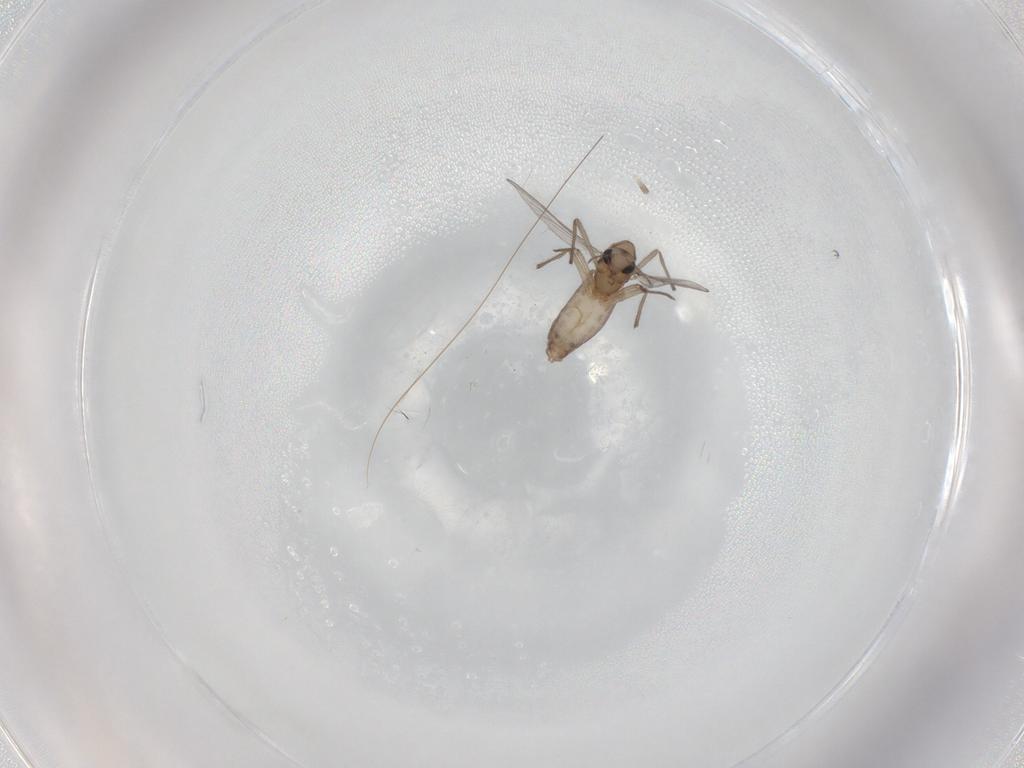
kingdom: Animalia
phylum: Arthropoda
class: Insecta
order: Diptera
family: Chironomidae
